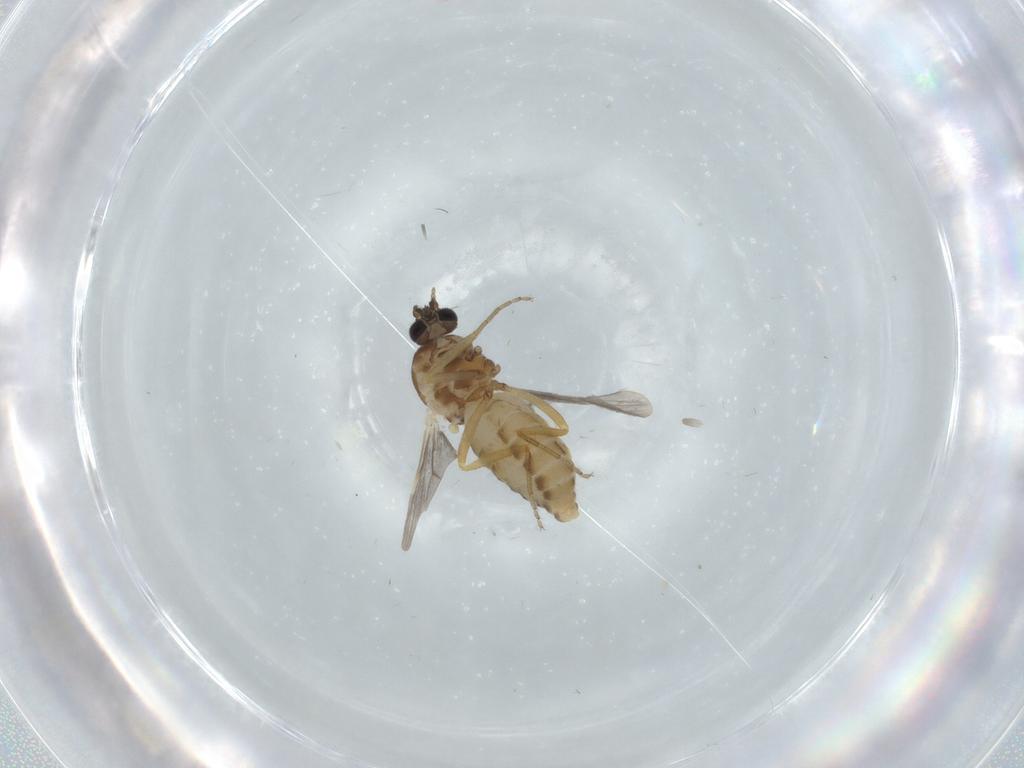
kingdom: Animalia
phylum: Arthropoda
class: Insecta
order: Diptera
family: Ceratopogonidae
